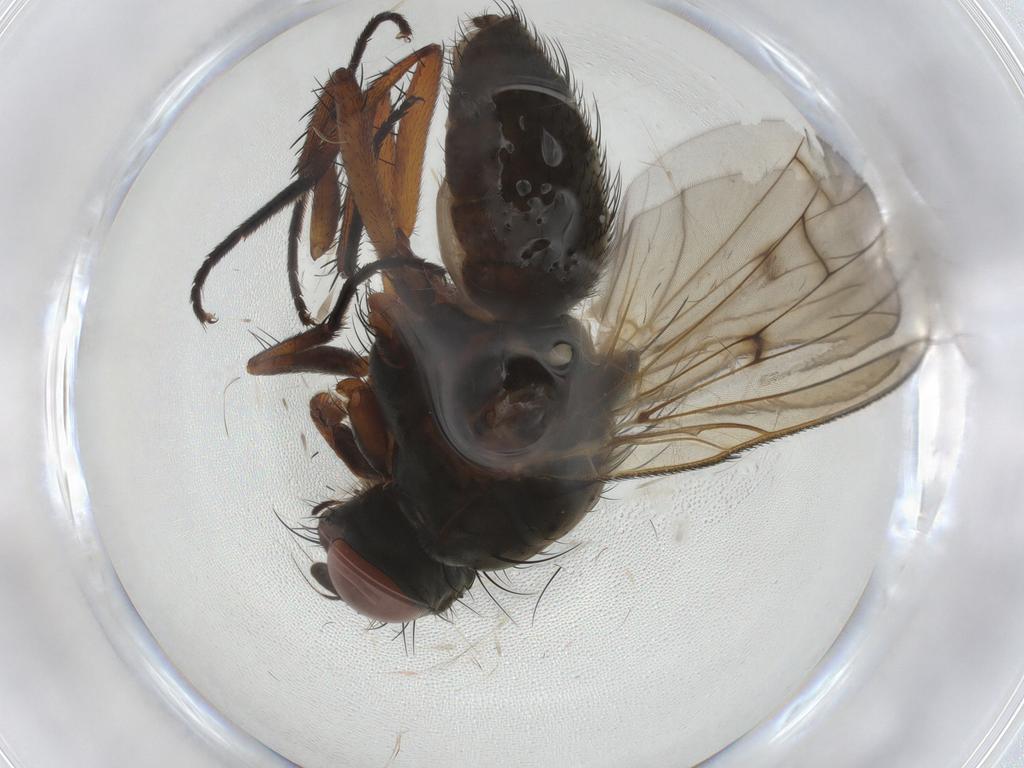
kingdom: Animalia
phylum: Arthropoda
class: Insecta
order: Diptera
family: Anthomyiidae
